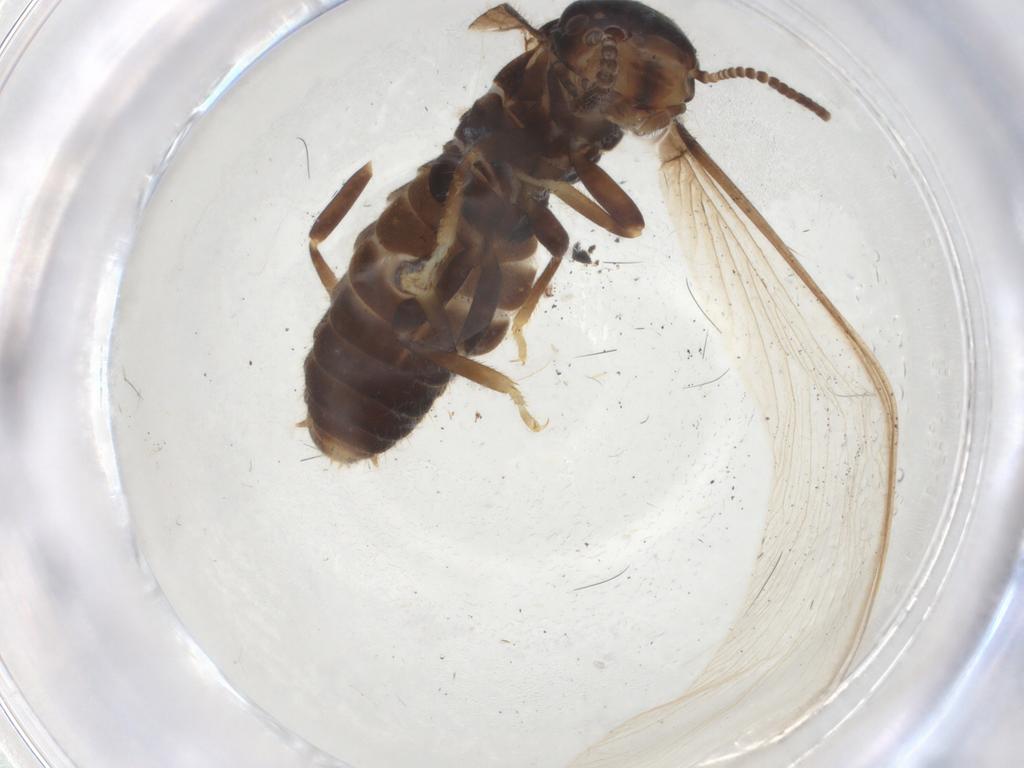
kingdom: Animalia
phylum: Arthropoda
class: Insecta
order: Blattodea
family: Rhinotermitidae
